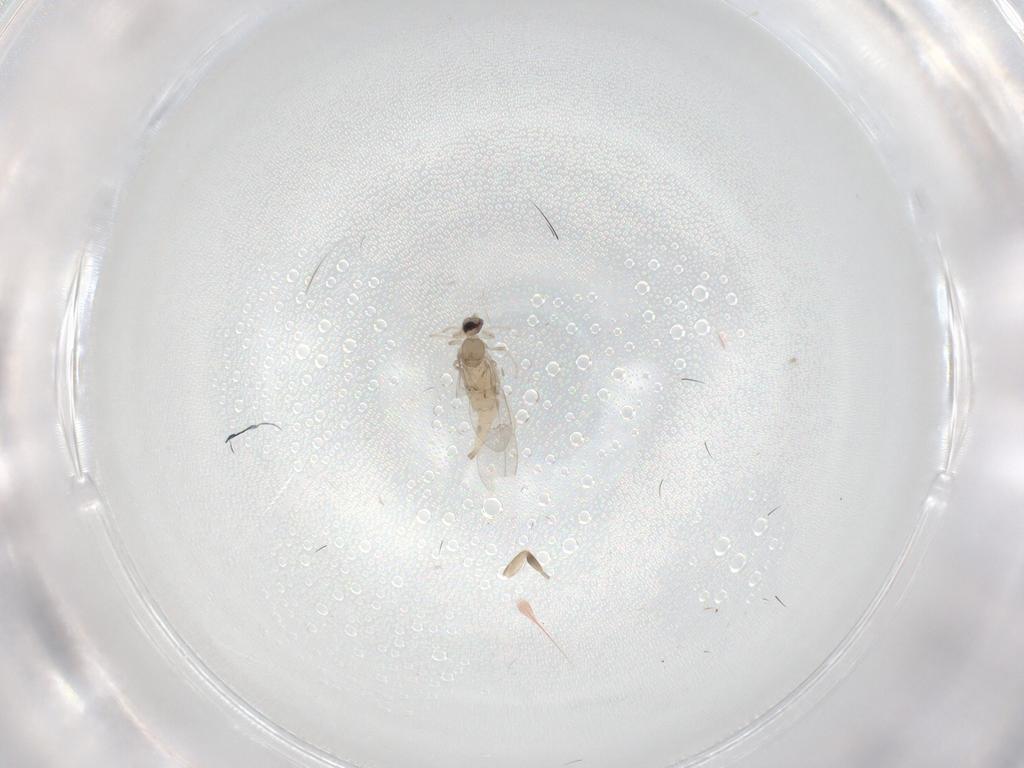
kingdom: Animalia
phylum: Arthropoda
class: Insecta
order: Diptera
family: Cecidomyiidae
